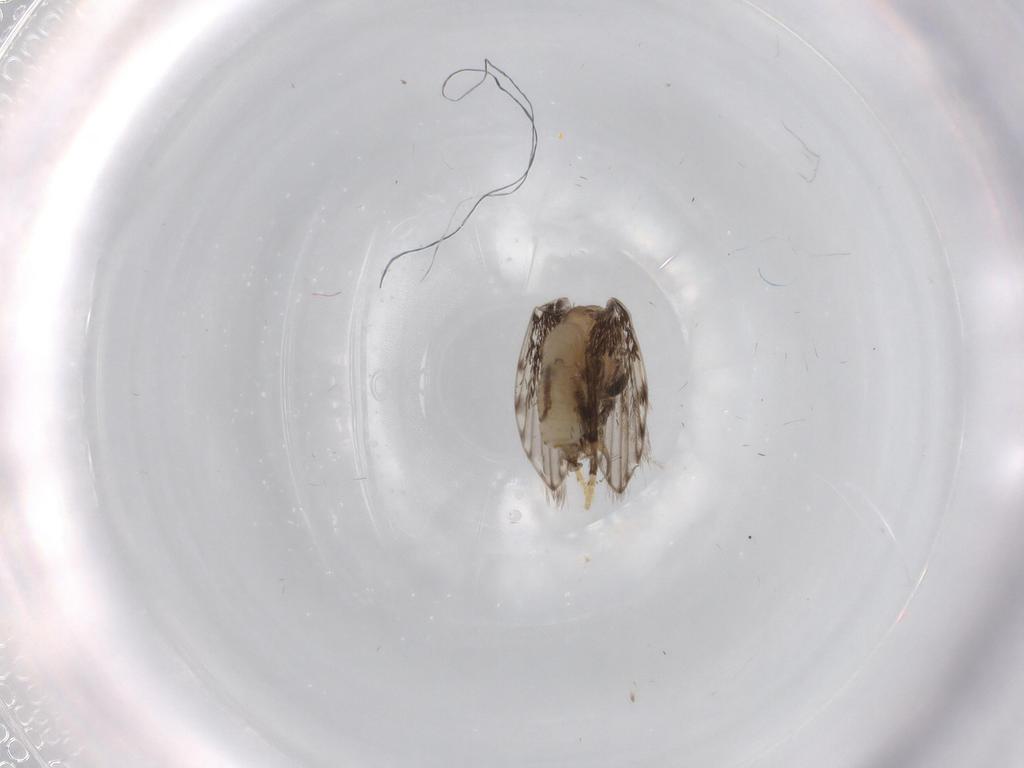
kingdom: Animalia
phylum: Arthropoda
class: Insecta
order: Diptera
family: Psychodidae
